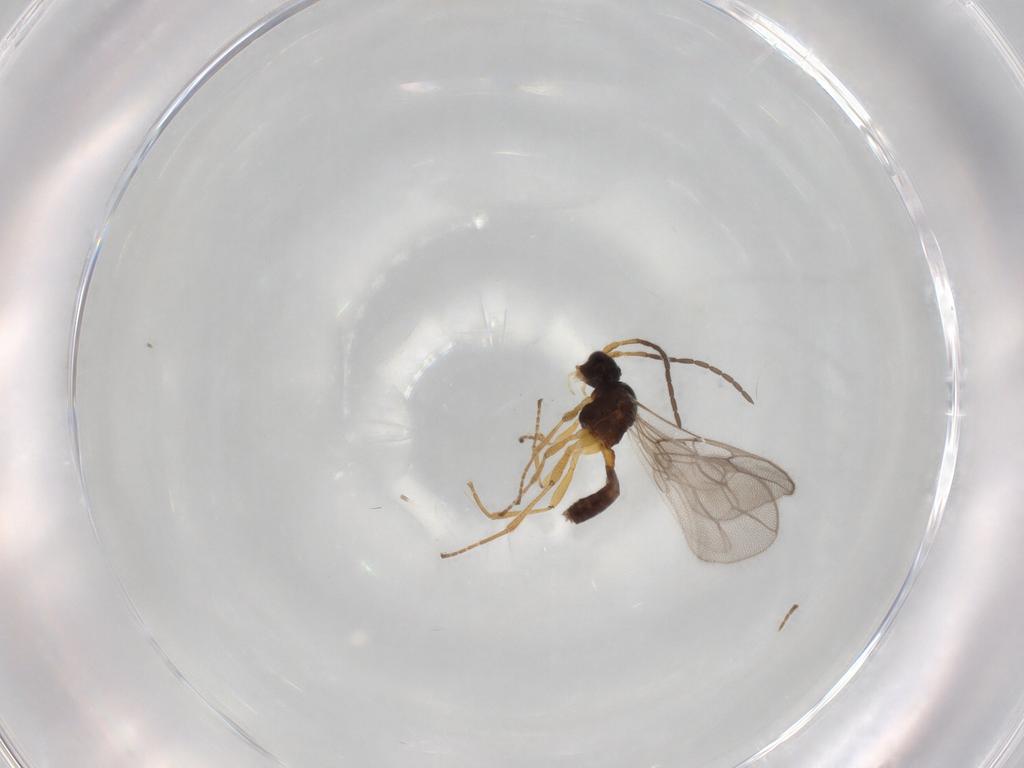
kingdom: Animalia
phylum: Arthropoda
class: Insecta
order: Hymenoptera
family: Braconidae
